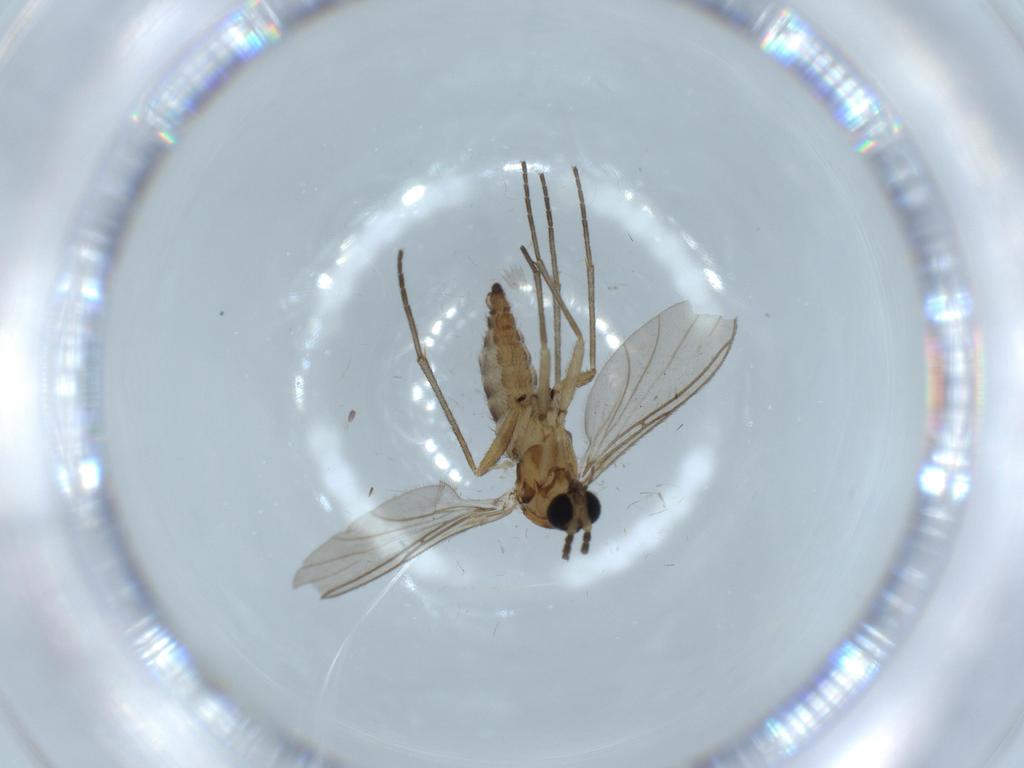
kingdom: Animalia
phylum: Arthropoda
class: Insecta
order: Diptera
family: Sciaridae
